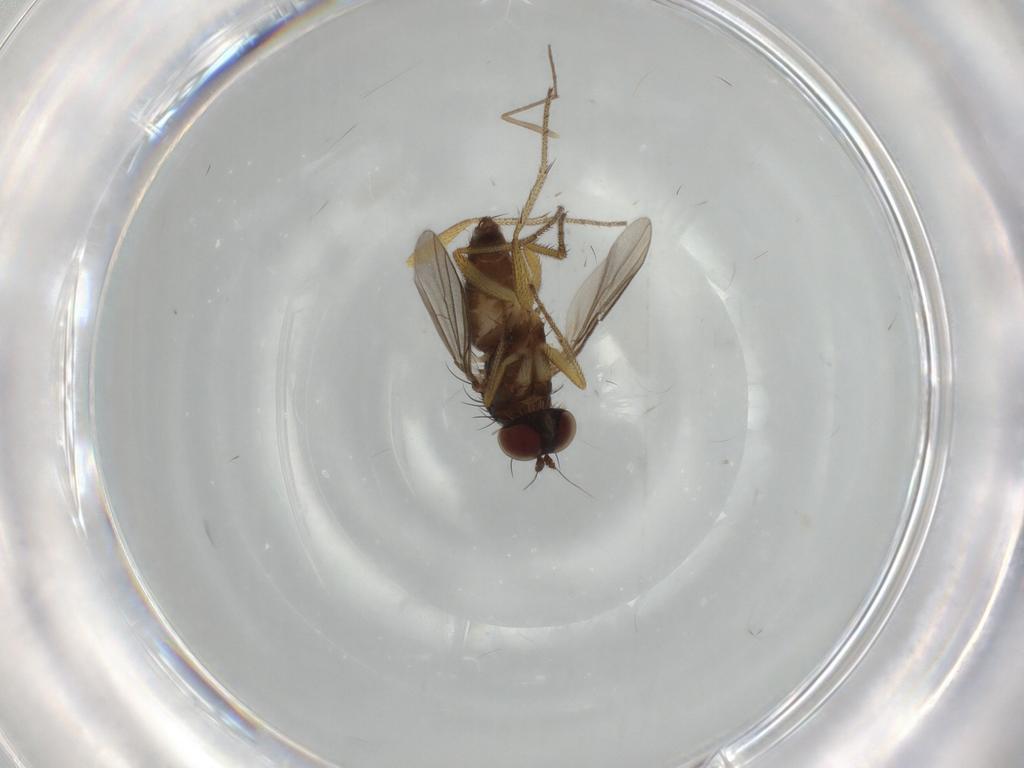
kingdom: Animalia
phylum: Arthropoda
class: Insecta
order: Diptera
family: Dolichopodidae
